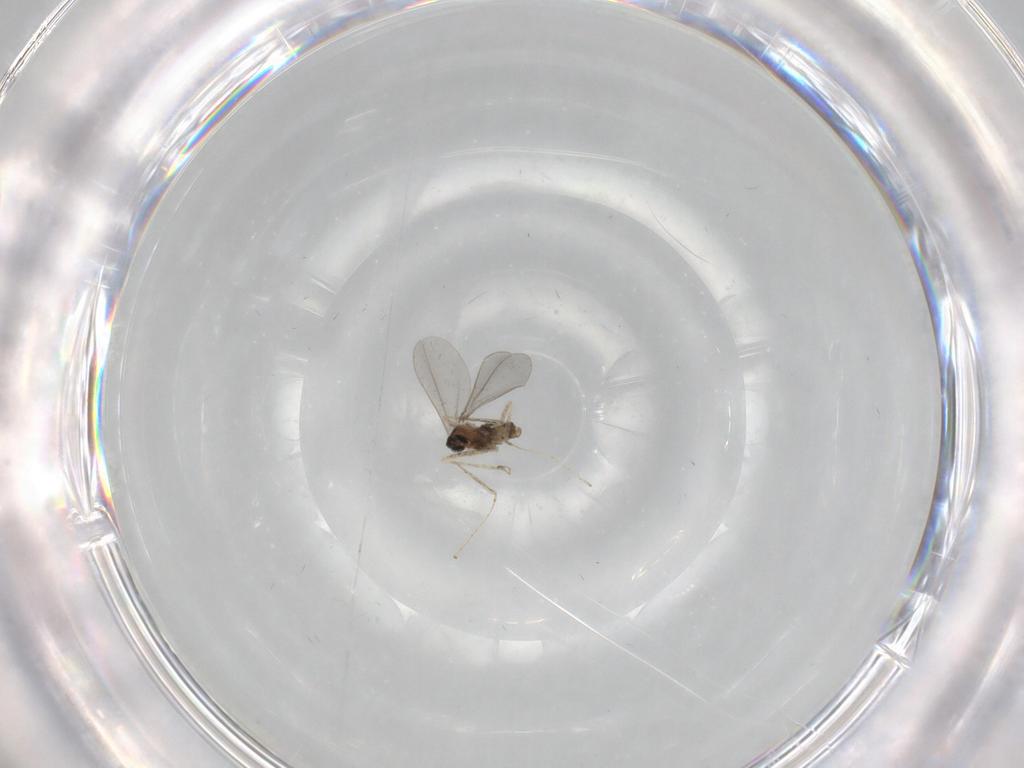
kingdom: Animalia
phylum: Arthropoda
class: Insecta
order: Diptera
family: Chironomidae
